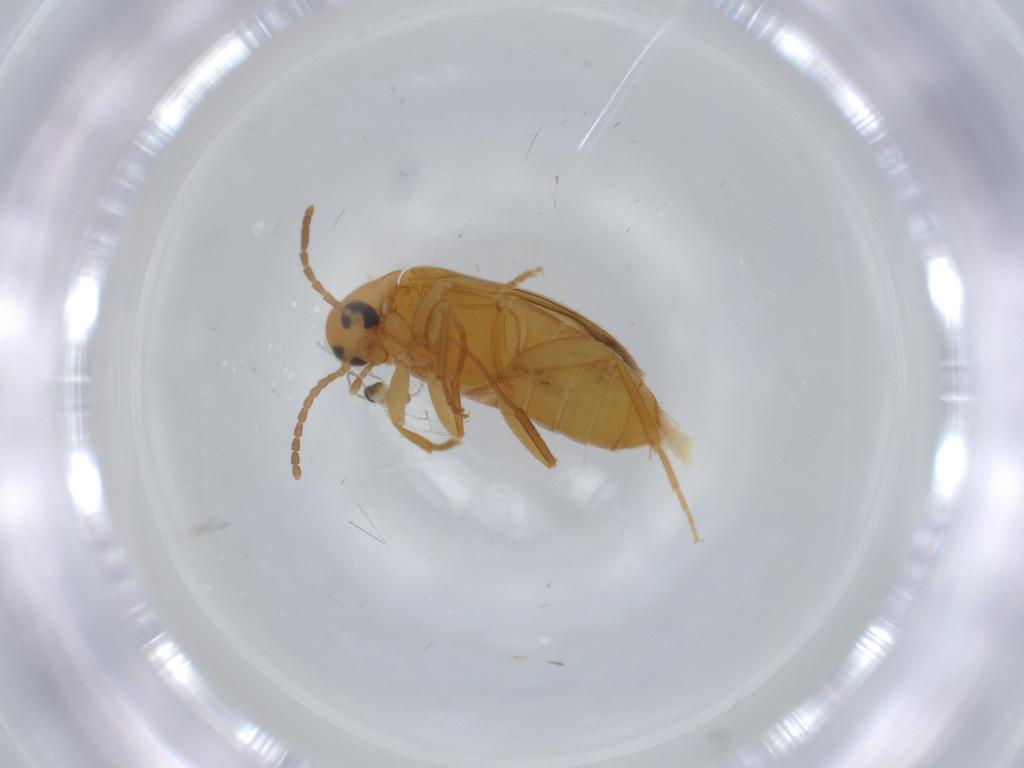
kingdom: Animalia
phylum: Arthropoda
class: Insecta
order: Coleoptera
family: Scraptiidae
